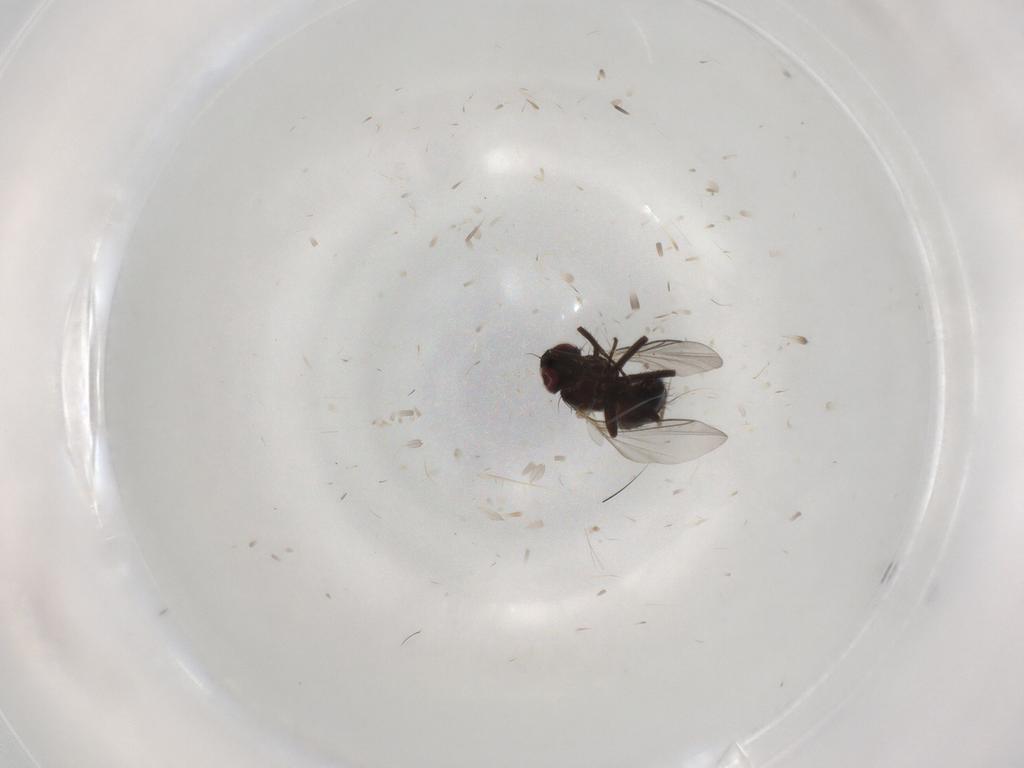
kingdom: Animalia
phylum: Arthropoda
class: Insecta
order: Diptera
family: Agromyzidae
